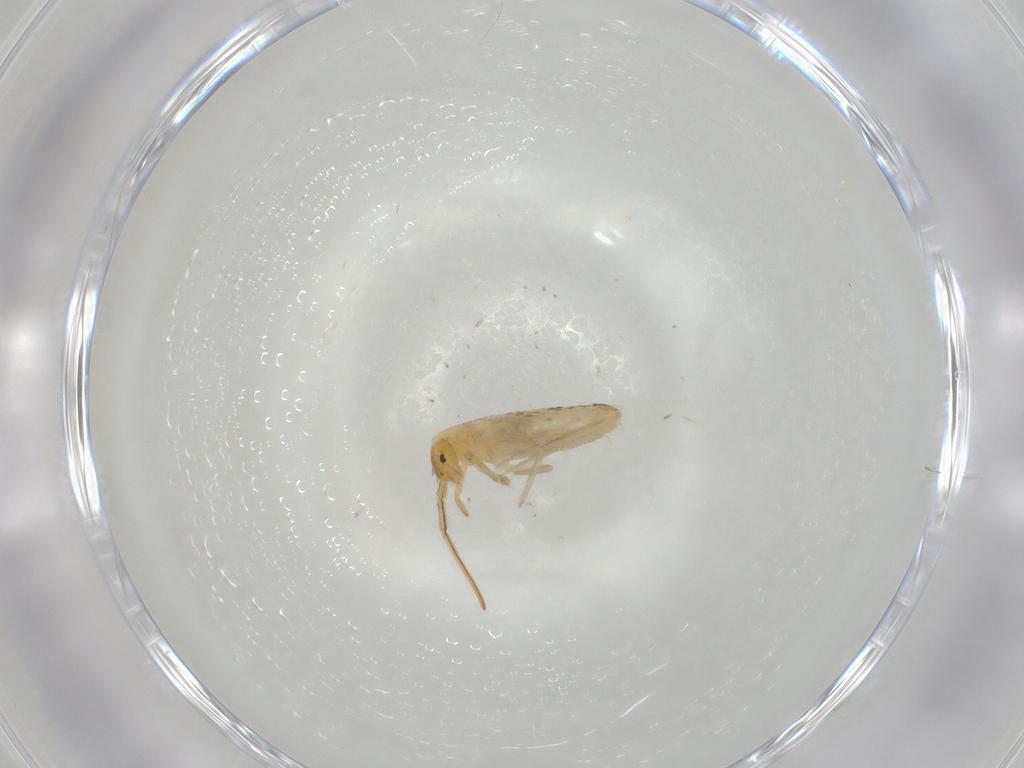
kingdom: Animalia
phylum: Arthropoda
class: Collembola
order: Entomobryomorpha
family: Entomobryidae
